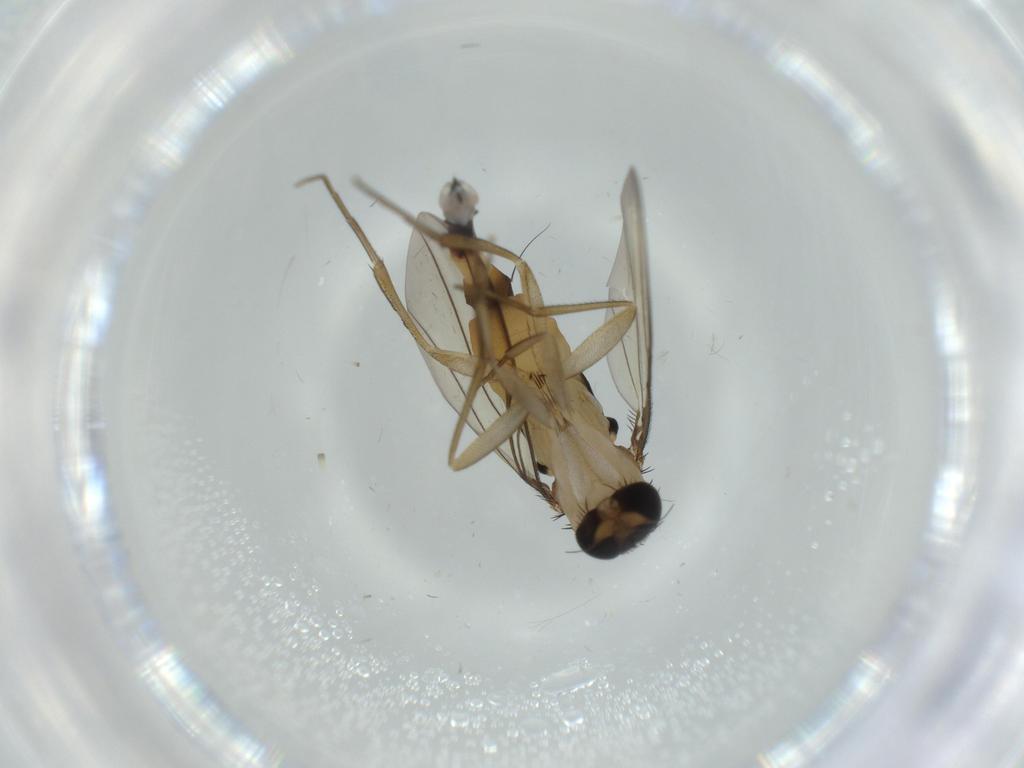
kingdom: Animalia
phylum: Arthropoda
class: Insecta
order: Diptera
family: Phoridae
